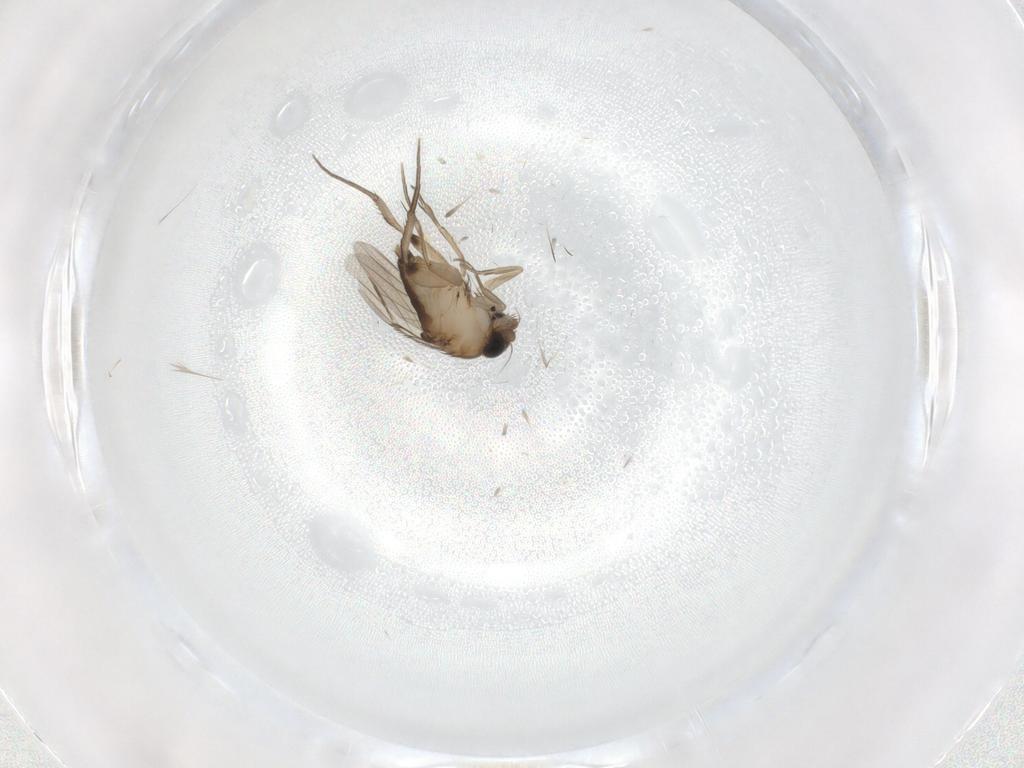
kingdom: Animalia
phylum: Arthropoda
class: Insecta
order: Diptera
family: Phoridae
